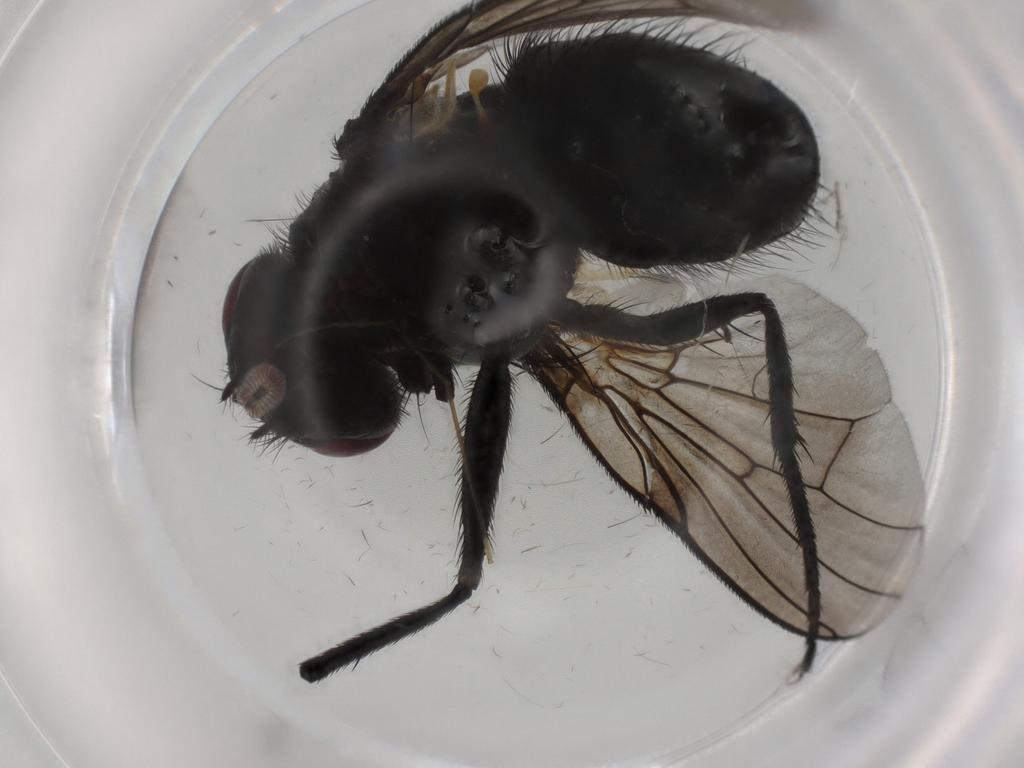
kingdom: Animalia
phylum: Arthropoda
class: Insecta
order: Diptera
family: Muscidae
